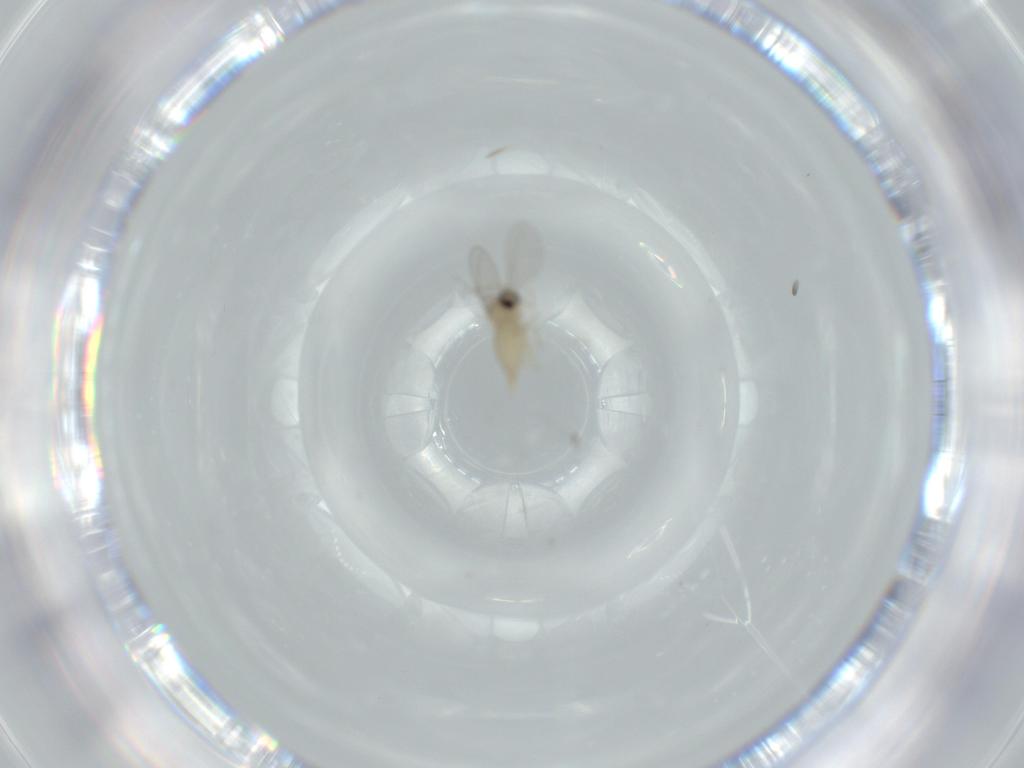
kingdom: Animalia
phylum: Arthropoda
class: Insecta
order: Diptera
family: Cecidomyiidae
